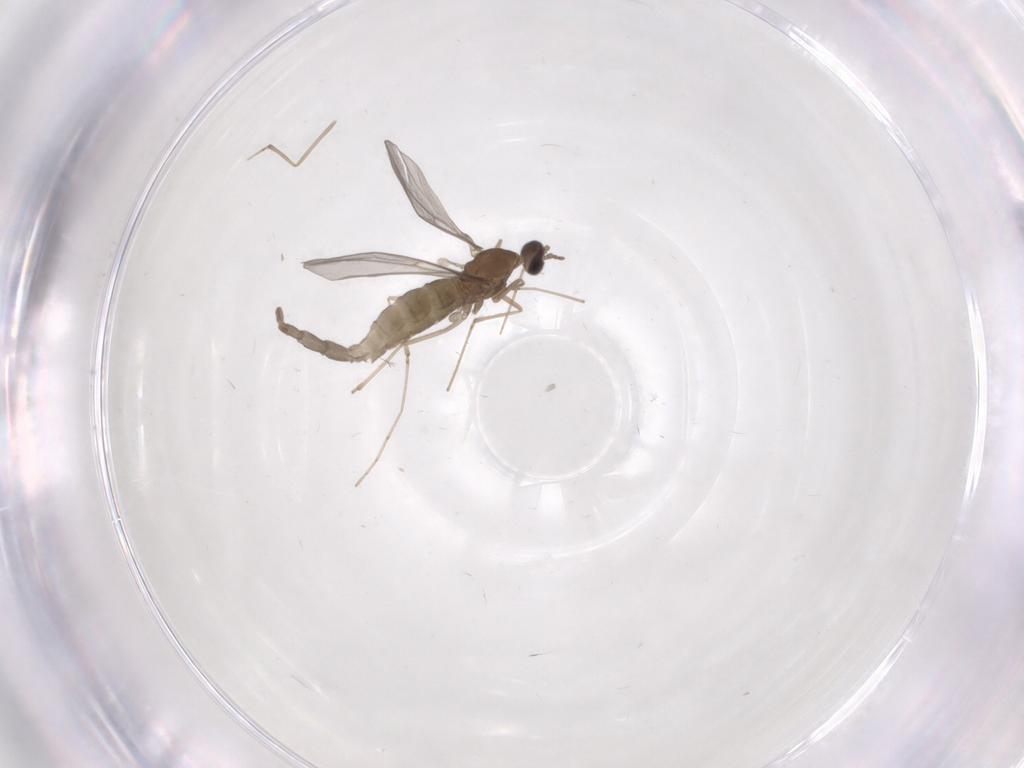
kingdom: Animalia
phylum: Arthropoda
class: Insecta
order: Diptera
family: Cecidomyiidae
